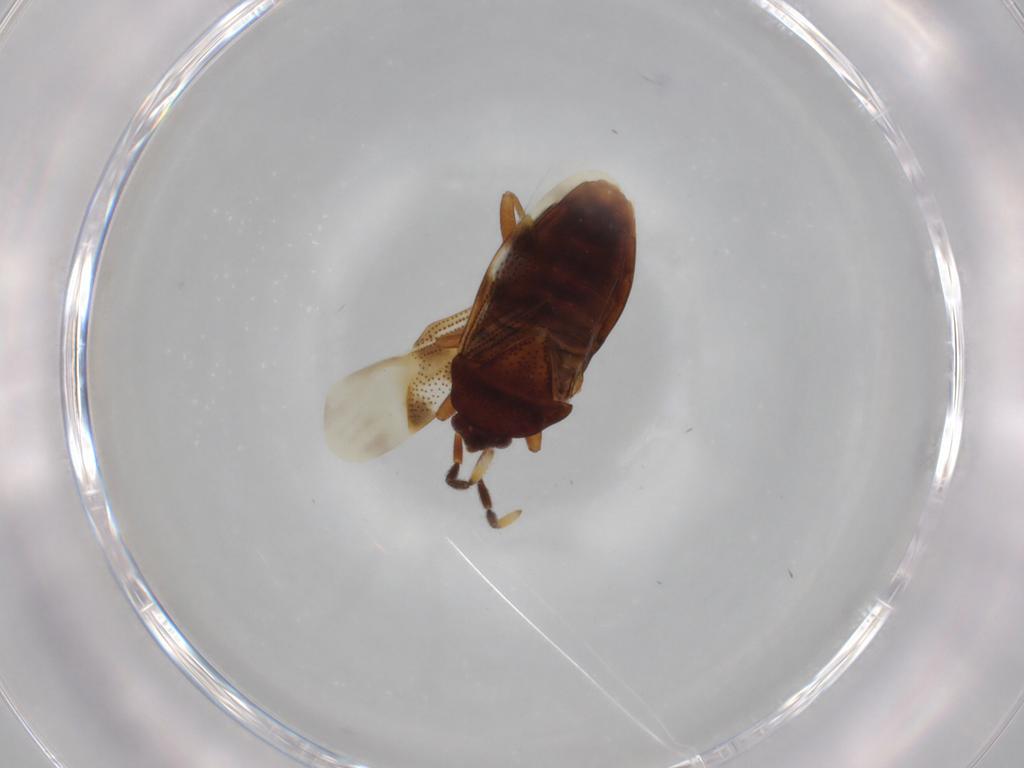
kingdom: Animalia
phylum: Arthropoda
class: Insecta
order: Hemiptera
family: Rhyparochromidae
